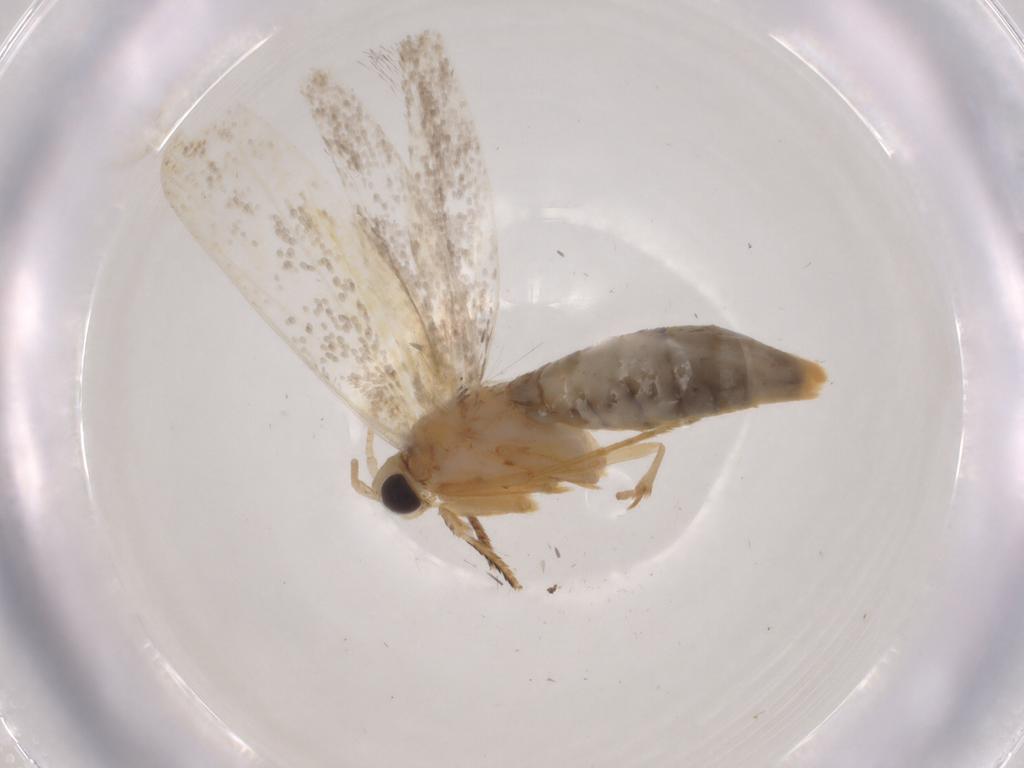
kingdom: Animalia
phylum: Arthropoda
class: Insecta
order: Lepidoptera
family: Tineidae
